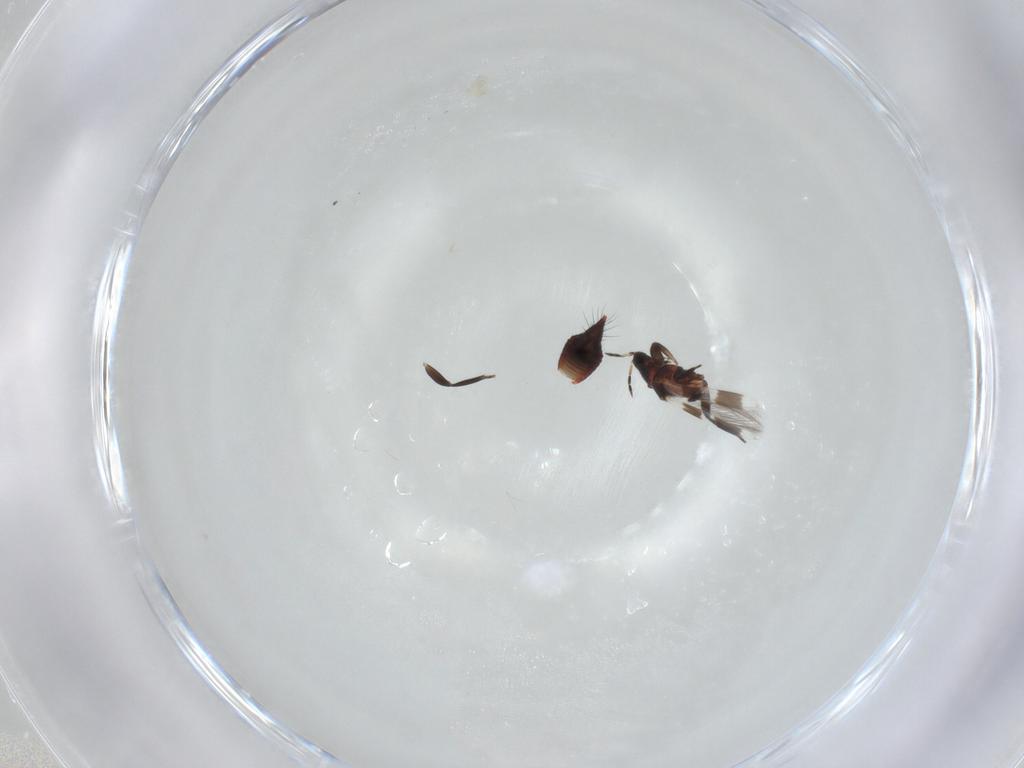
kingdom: Animalia
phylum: Arthropoda
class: Insecta
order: Thysanoptera
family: Aeolothripidae
